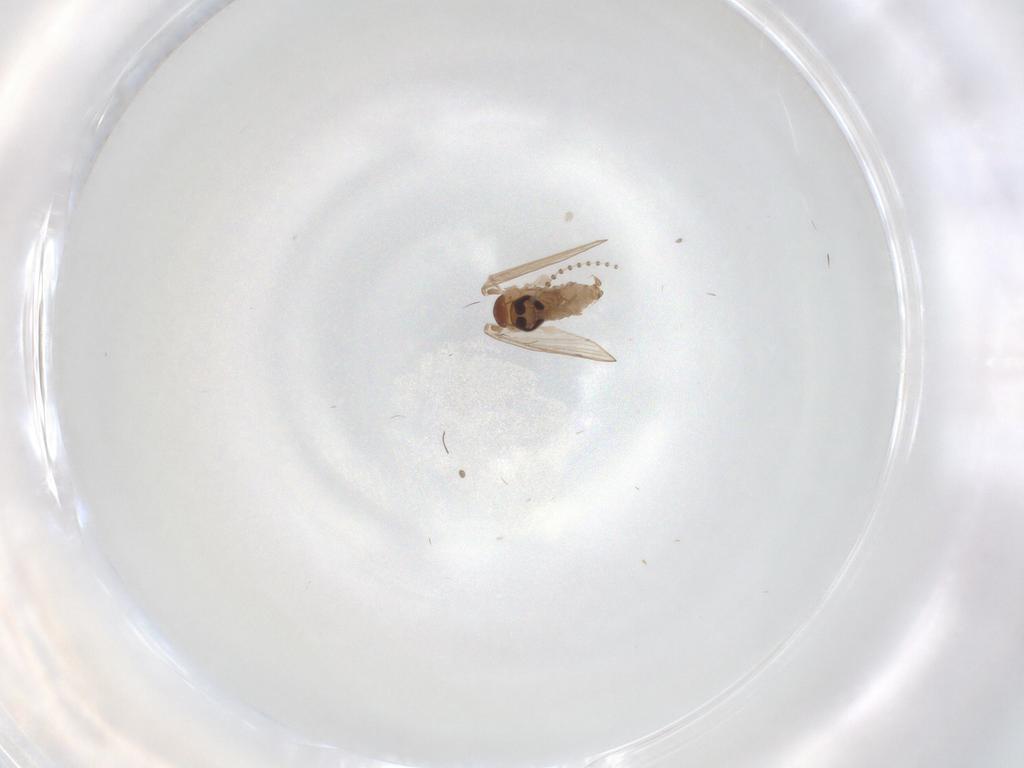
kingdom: Animalia
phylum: Arthropoda
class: Insecta
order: Diptera
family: Psychodidae
